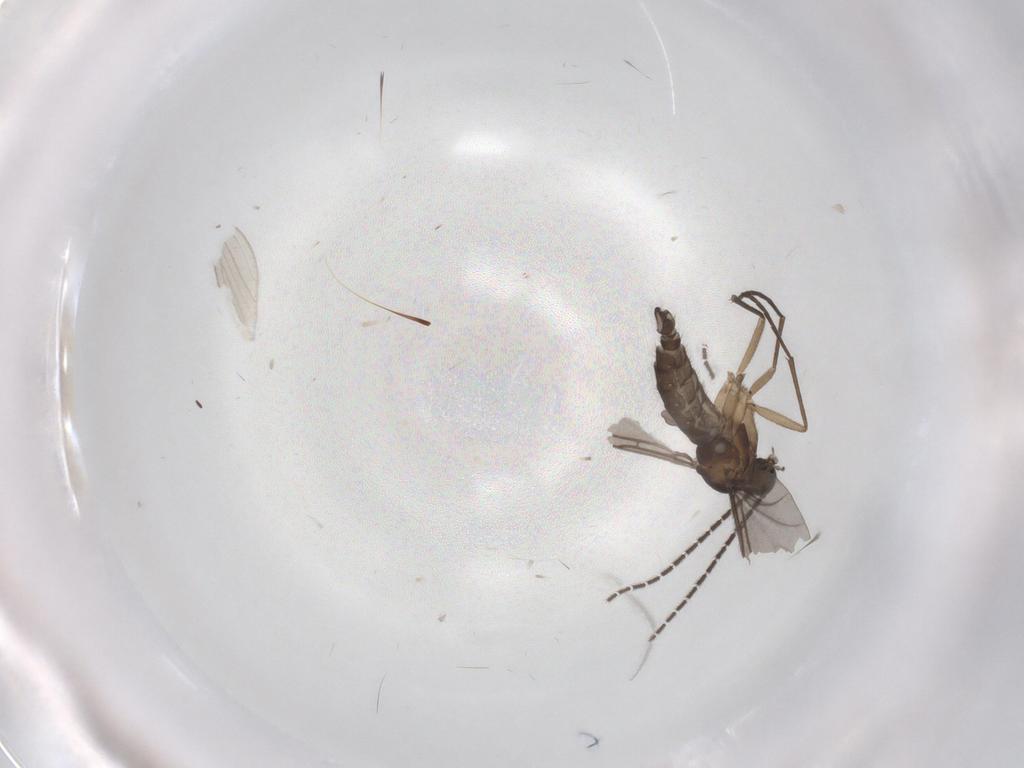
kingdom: Animalia
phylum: Arthropoda
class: Insecta
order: Diptera
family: Sciaridae
